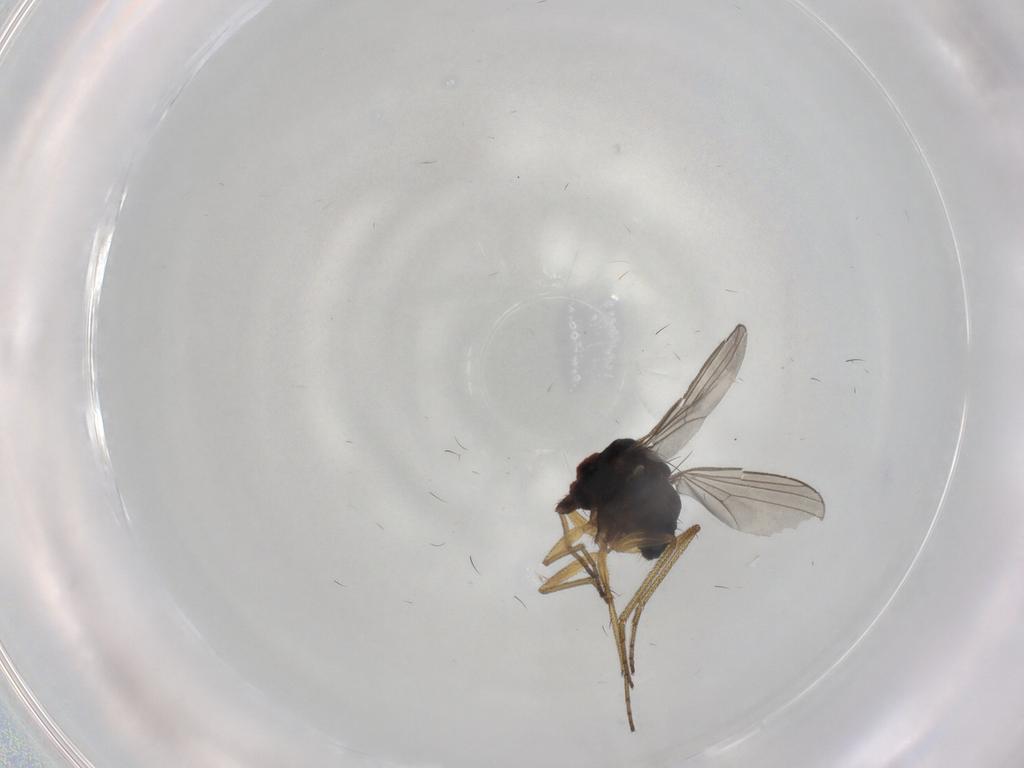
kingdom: Animalia
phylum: Arthropoda
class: Insecta
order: Diptera
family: Dolichopodidae
